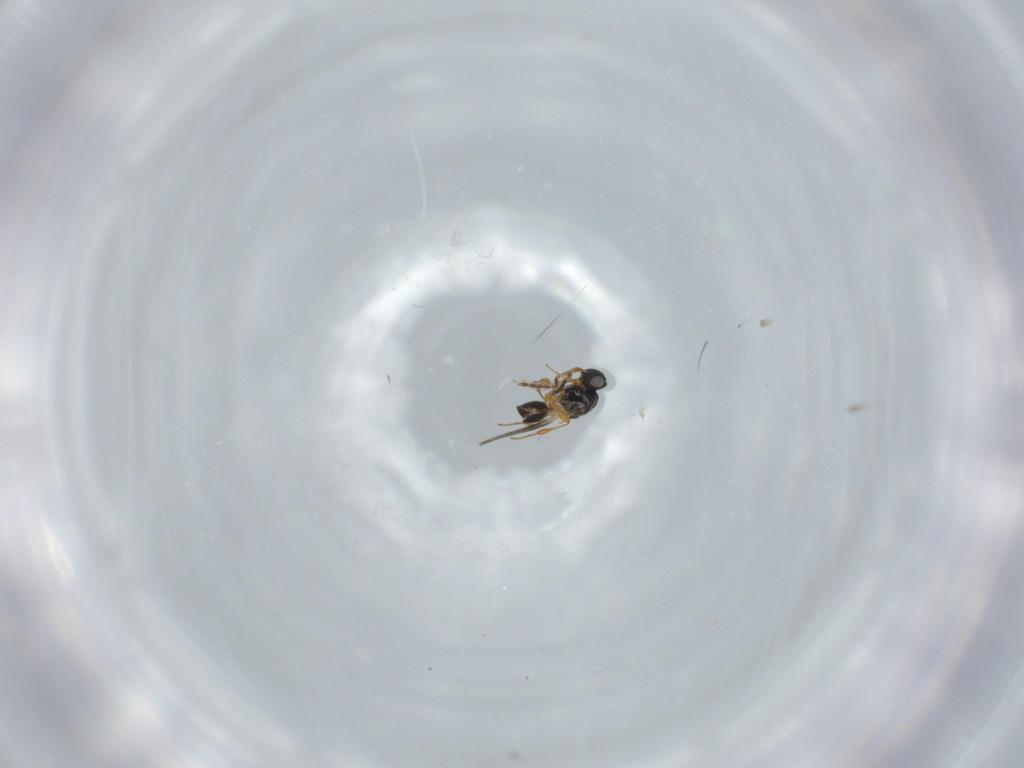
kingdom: Animalia
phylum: Arthropoda
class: Insecta
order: Hymenoptera
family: Platygastridae
